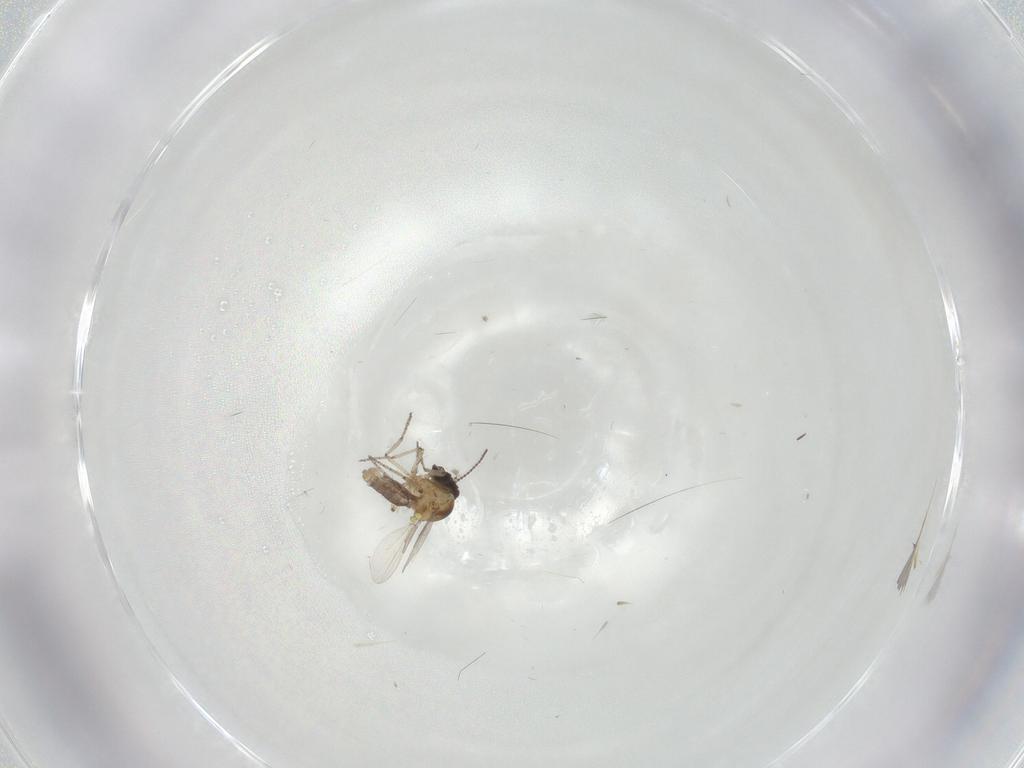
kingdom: Animalia
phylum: Arthropoda
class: Insecta
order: Diptera
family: Ceratopogonidae
